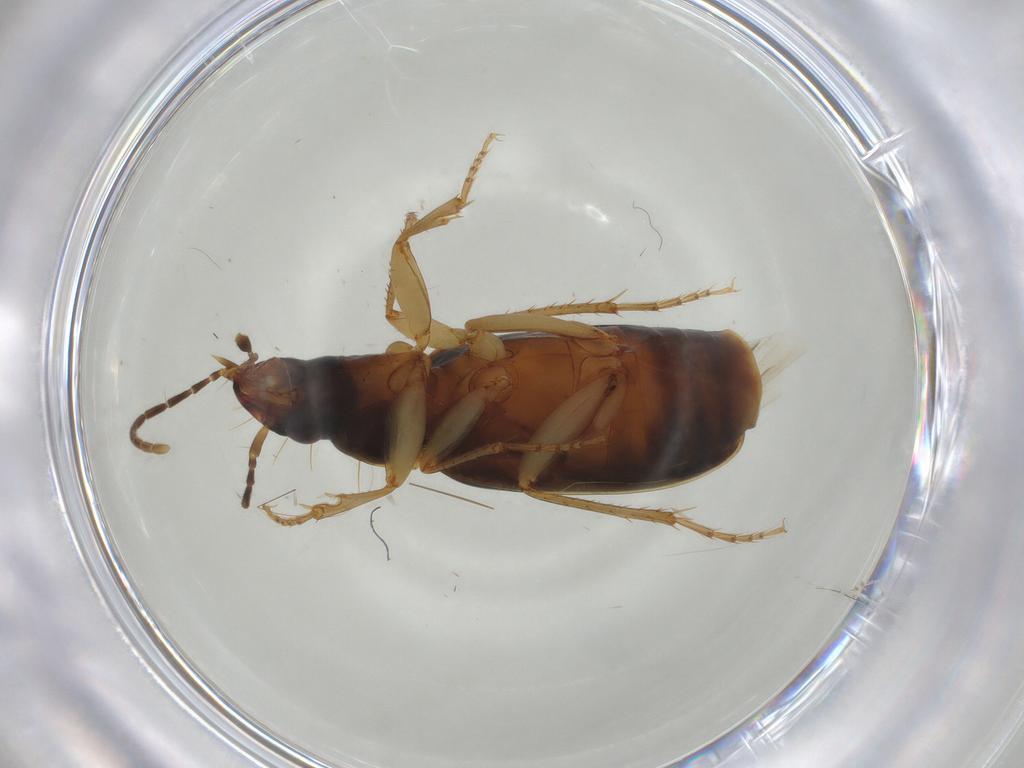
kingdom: Animalia
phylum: Arthropoda
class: Insecta
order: Coleoptera
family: Carabidae
